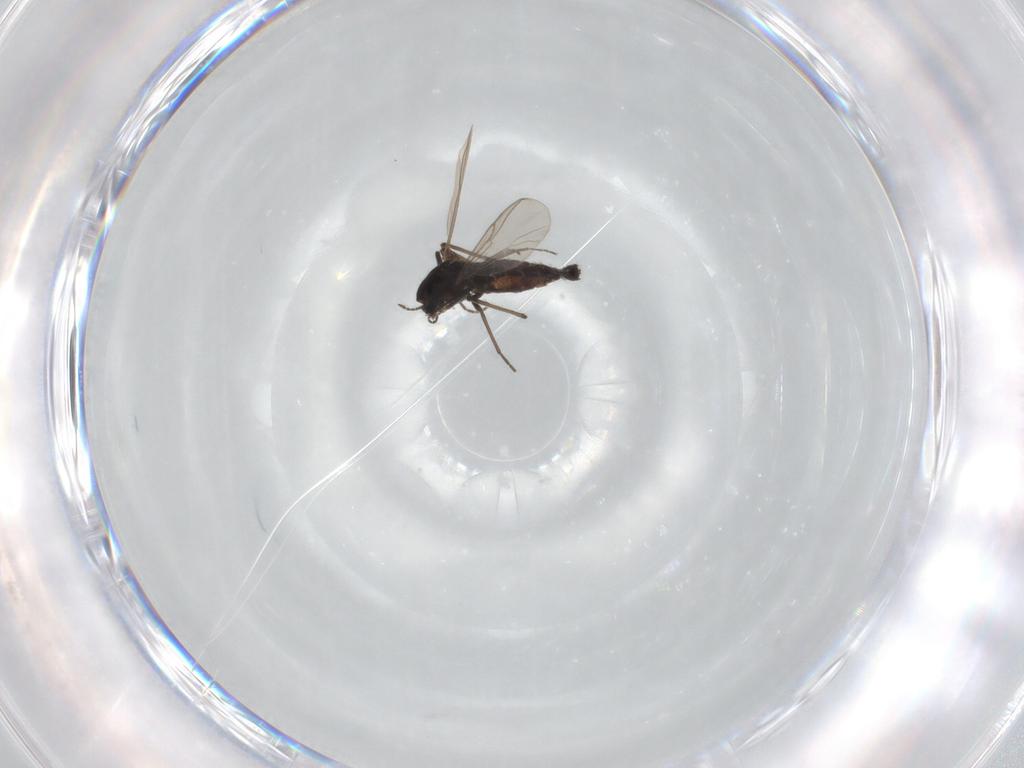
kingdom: Animalia
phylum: Arthropoda
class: Insecta
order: Diptera
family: Chironomidae
